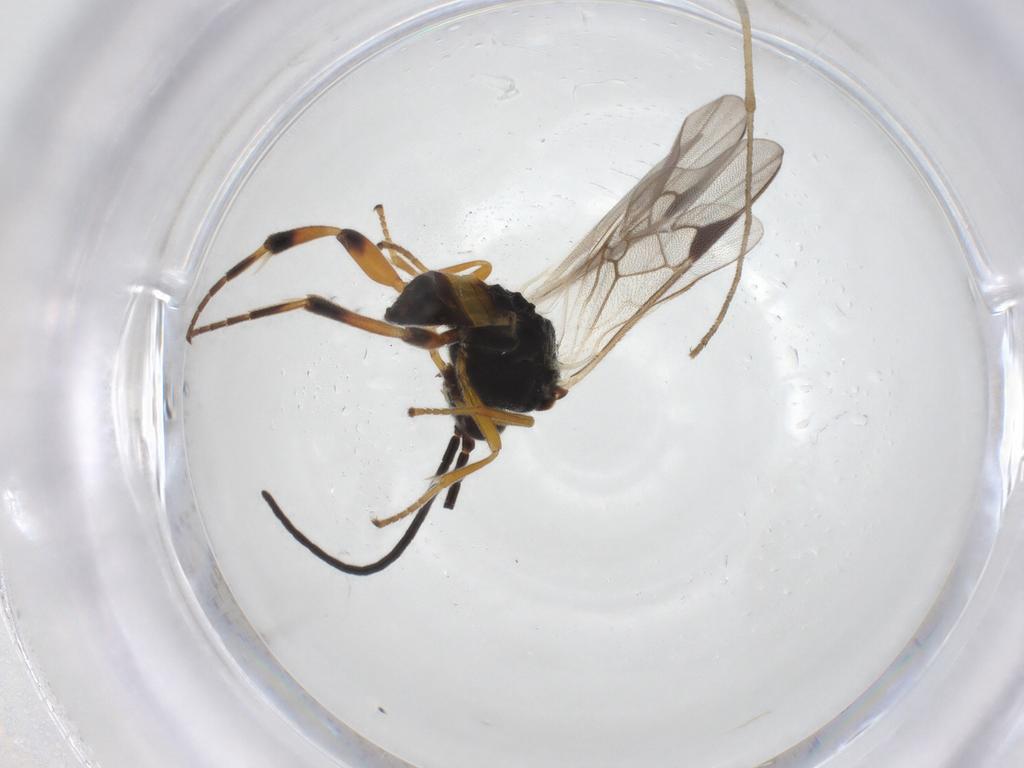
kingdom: Animalia
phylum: Arthropoda
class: Insecta
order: Hymenoptera
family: Braconidae
